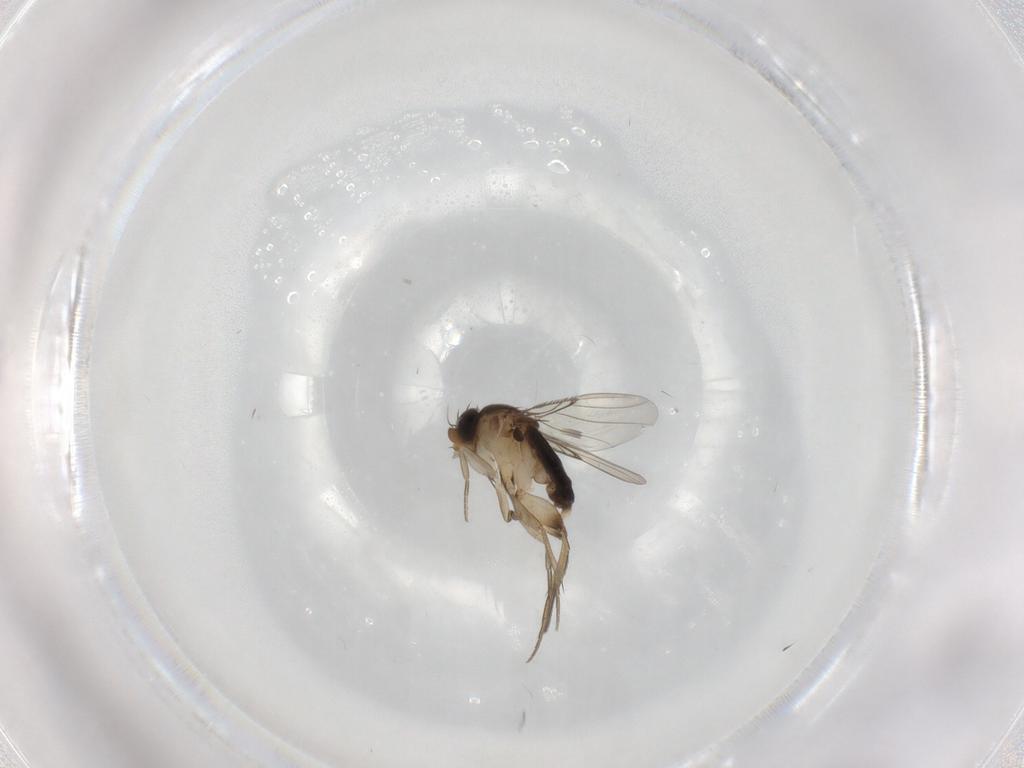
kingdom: Animalia
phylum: Arthropoda
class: Insecta
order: Diptera
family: Phoridae
